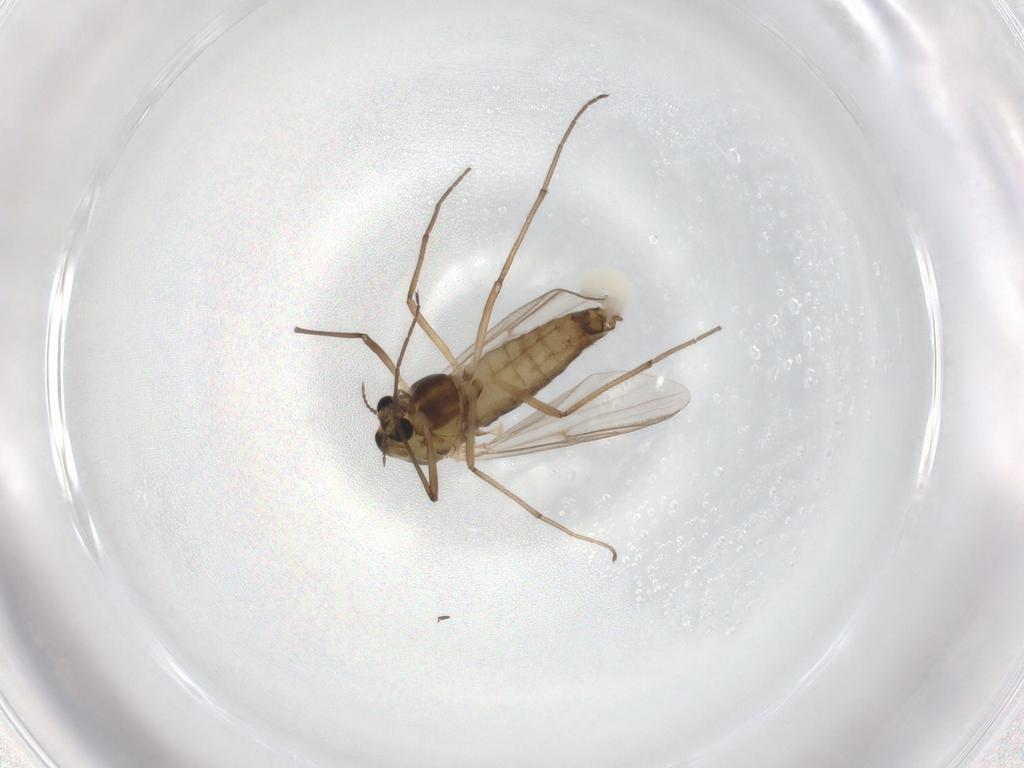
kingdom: Animalia
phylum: Arthropoda
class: Insecta
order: Diptera
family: Chironomidae
